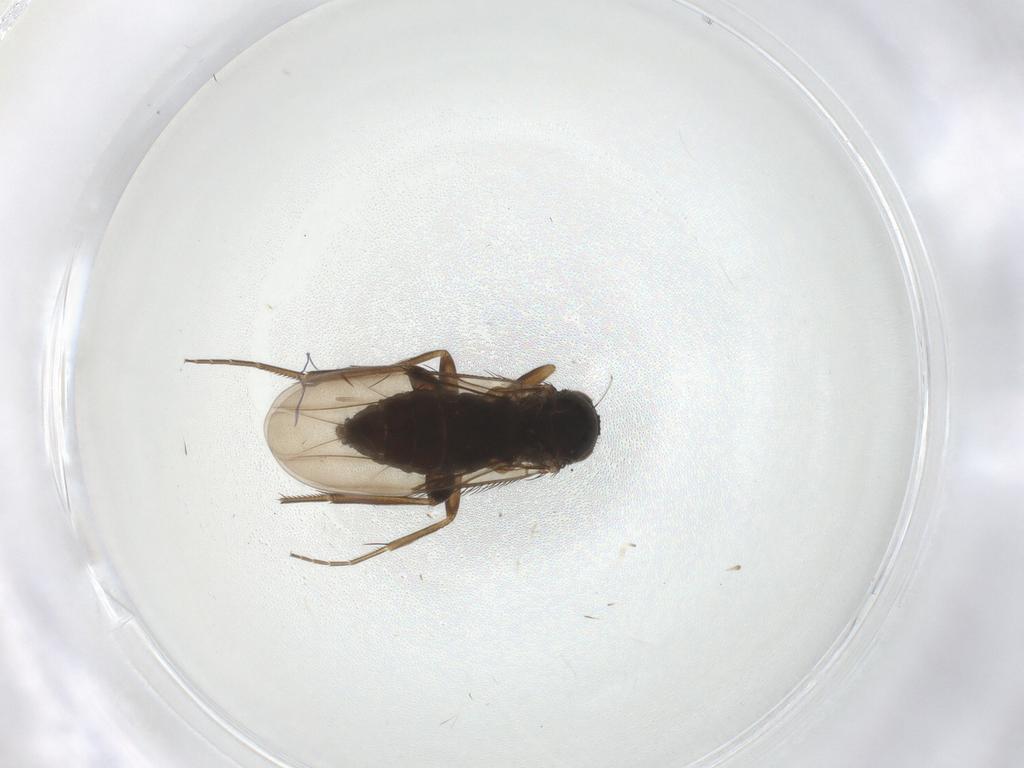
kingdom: Animalia
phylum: Arthropoda
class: Insecta
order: Diptera
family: Phoridae
